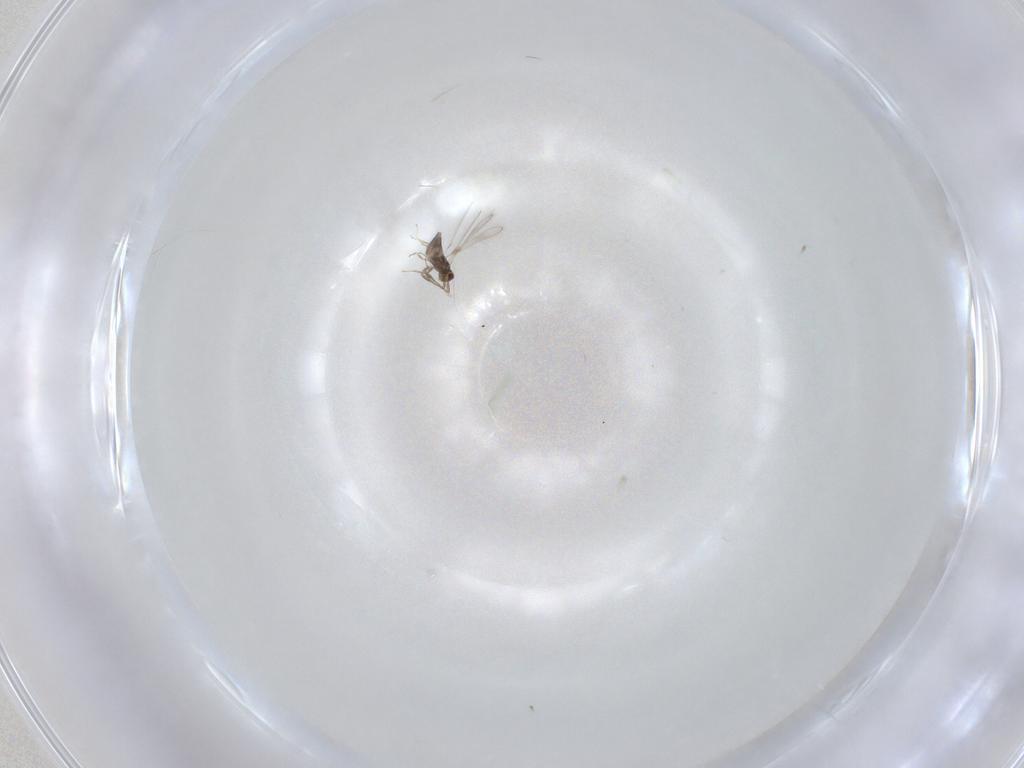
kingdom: Animalia
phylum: Arthropoda
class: Insecta
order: Hymenoptera
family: Mymaridae
